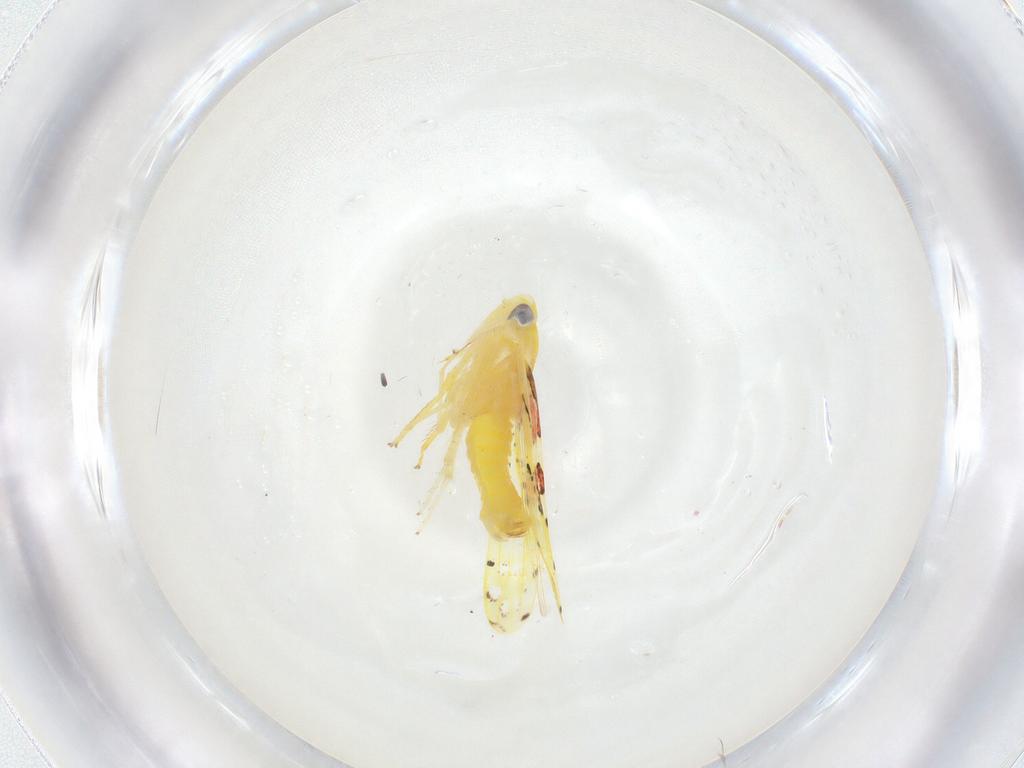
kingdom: Animalia
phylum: Arthropoda
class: Insecta
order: Hemiptera
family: Cicadellidae
